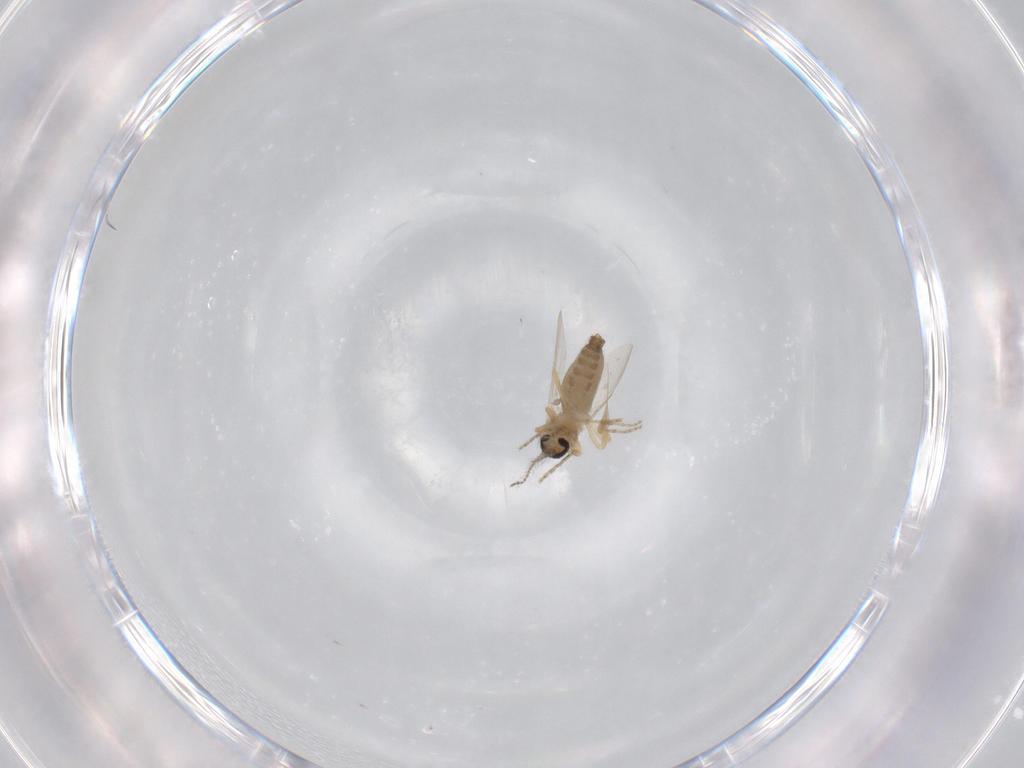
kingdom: Animalia
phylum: Arthropoda
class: Insecta
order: Diptera
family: Ceratopogonidae
